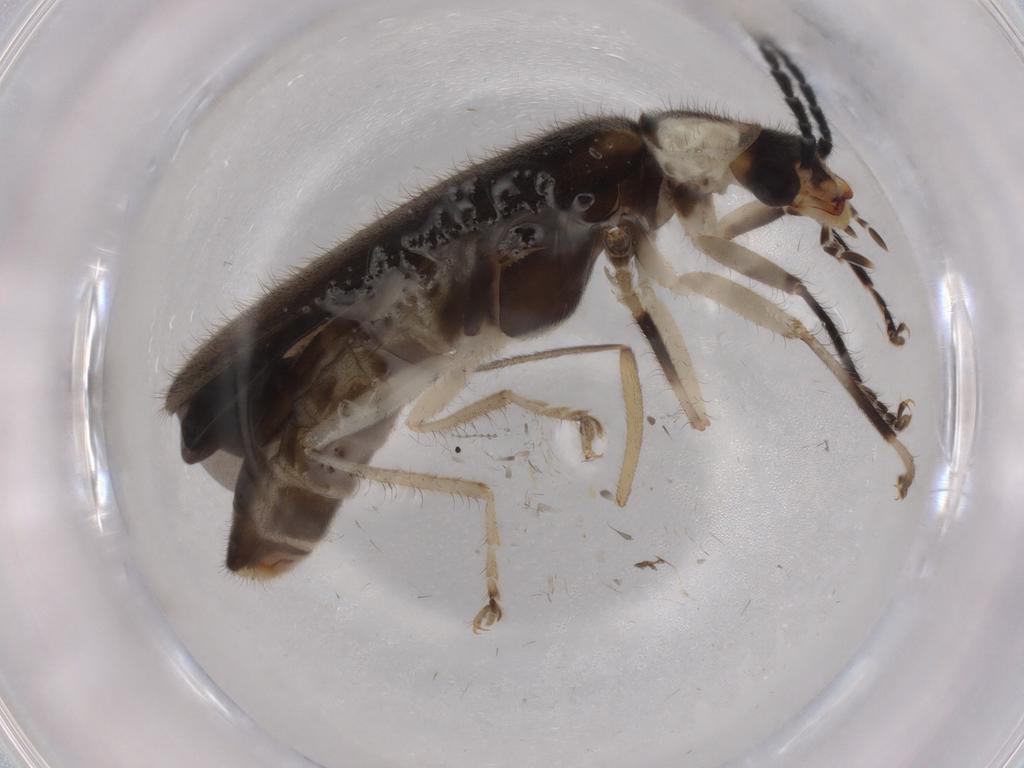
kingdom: Animalia
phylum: Arthropoda
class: Insecta
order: Coleoptera
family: Cantharidae
